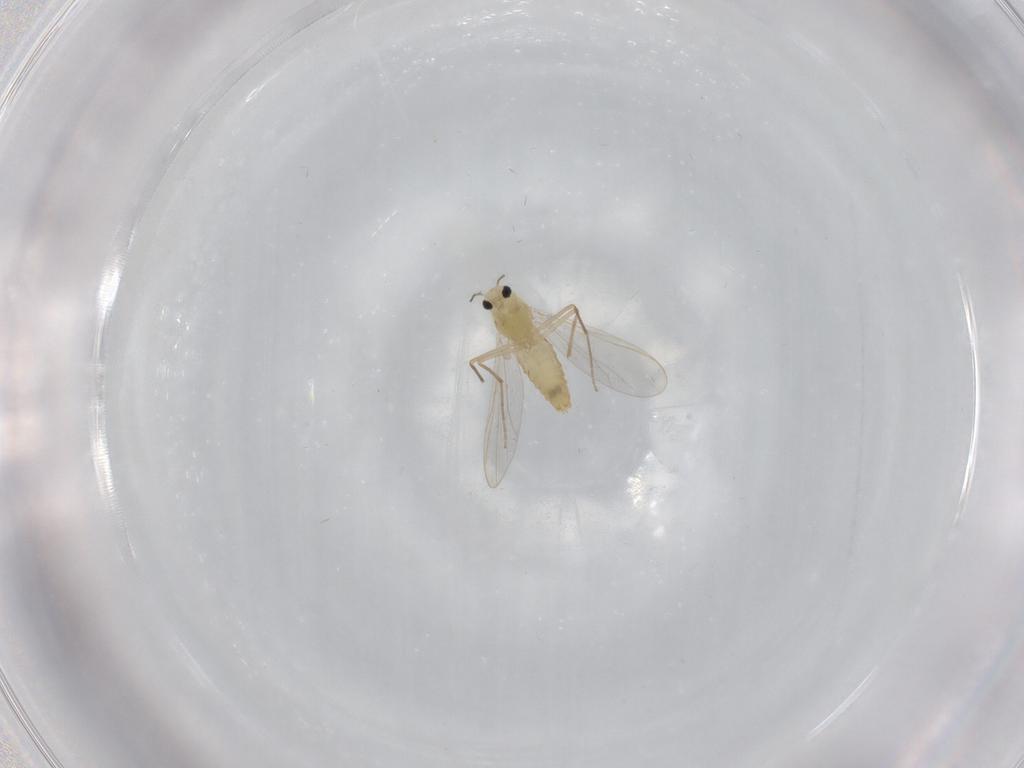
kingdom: Animalia
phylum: Arthropoda
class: Insecta
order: Diptera
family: Chironomidae
